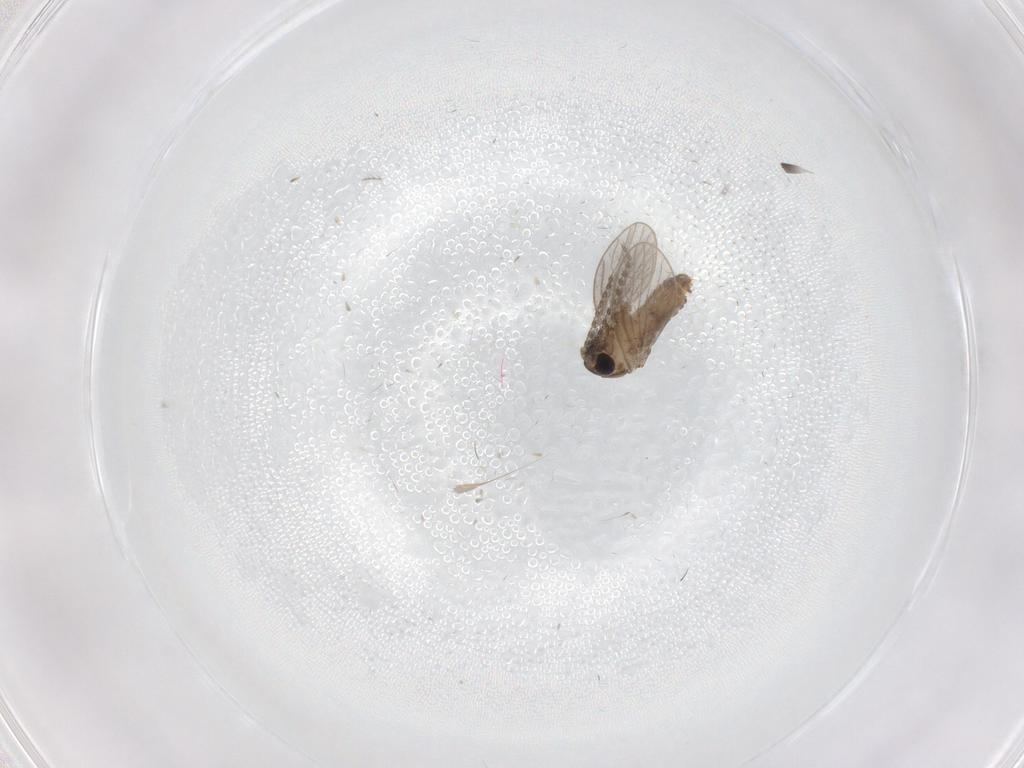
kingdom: Animalia
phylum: Arthropoda
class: Insecta
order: Diptera
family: Chironomidae
